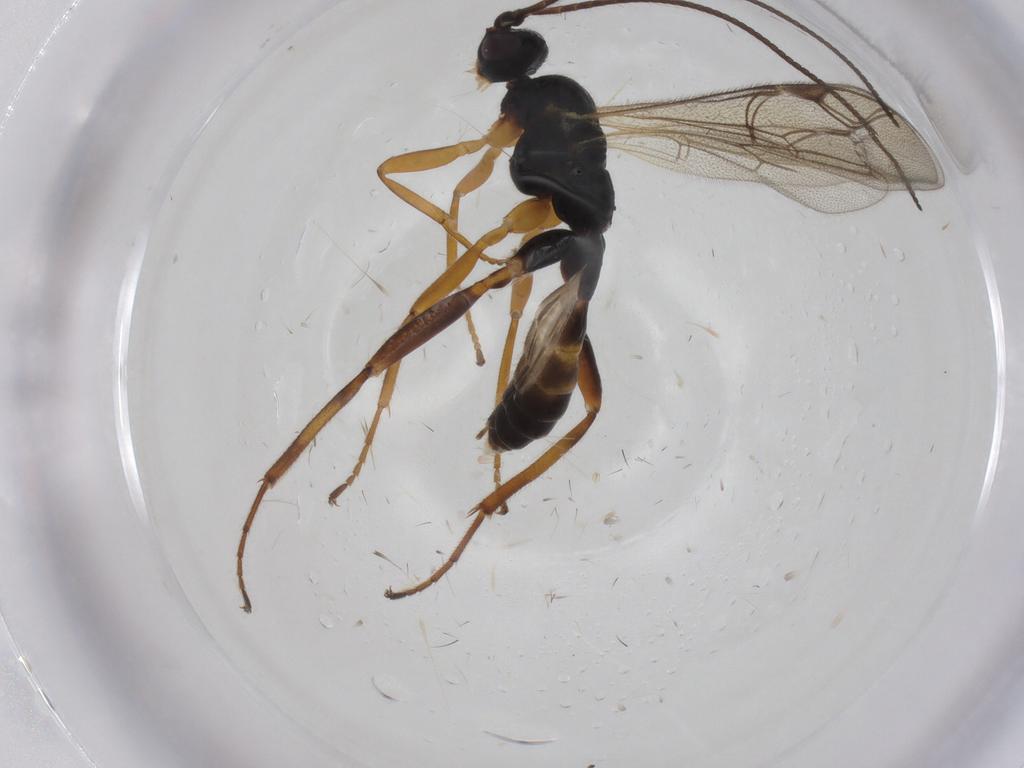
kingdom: Animalia
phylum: Arthropoda
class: Insecta
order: Hymenoptera
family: Ichneumonidae
